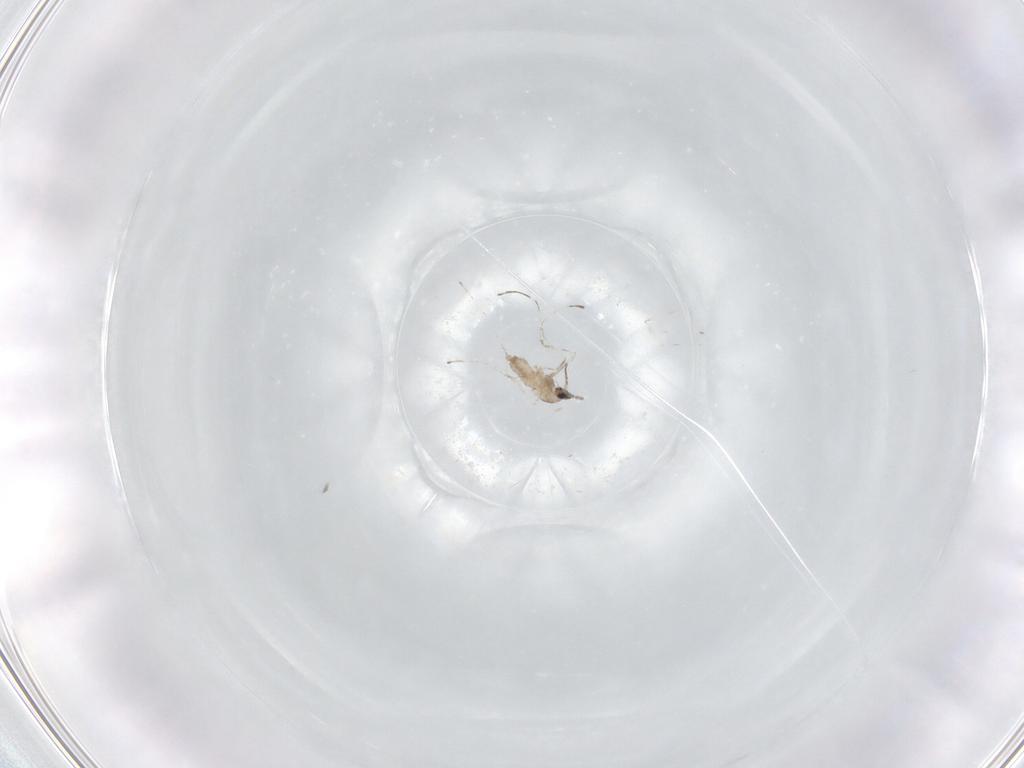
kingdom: Animalia
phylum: Arthropoda
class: Insecta
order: Diptera
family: Cecidomyiidae
